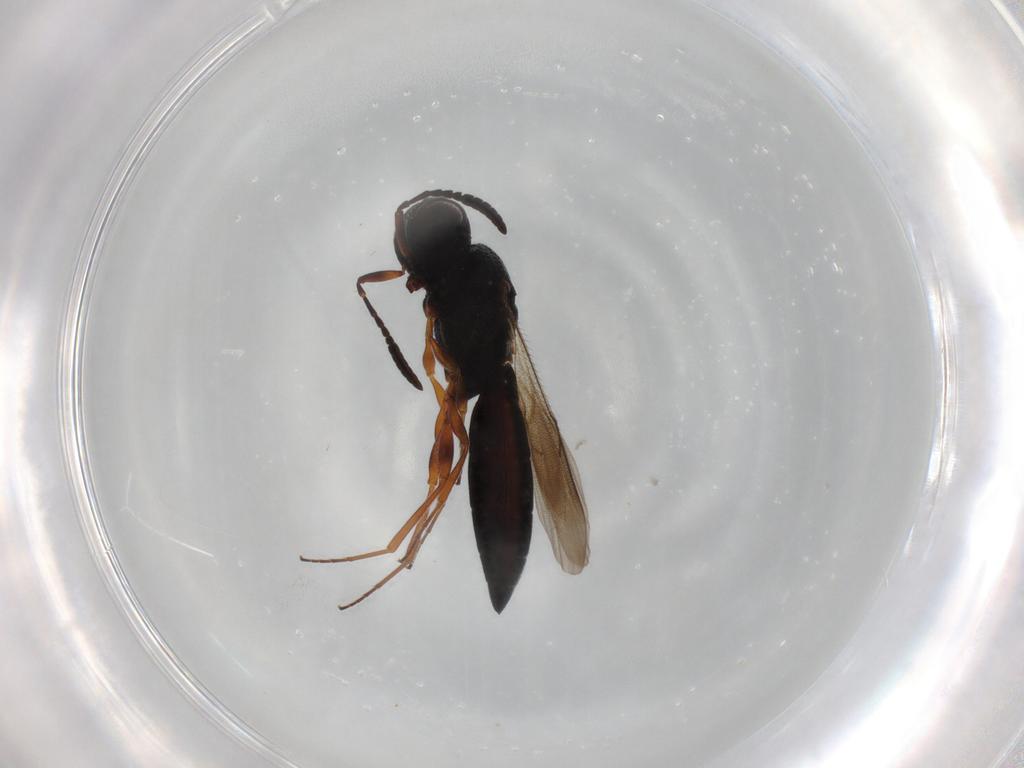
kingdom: Animalia
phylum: Arthropoda
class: Insecta
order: Hymenoptera
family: Scelionidae
